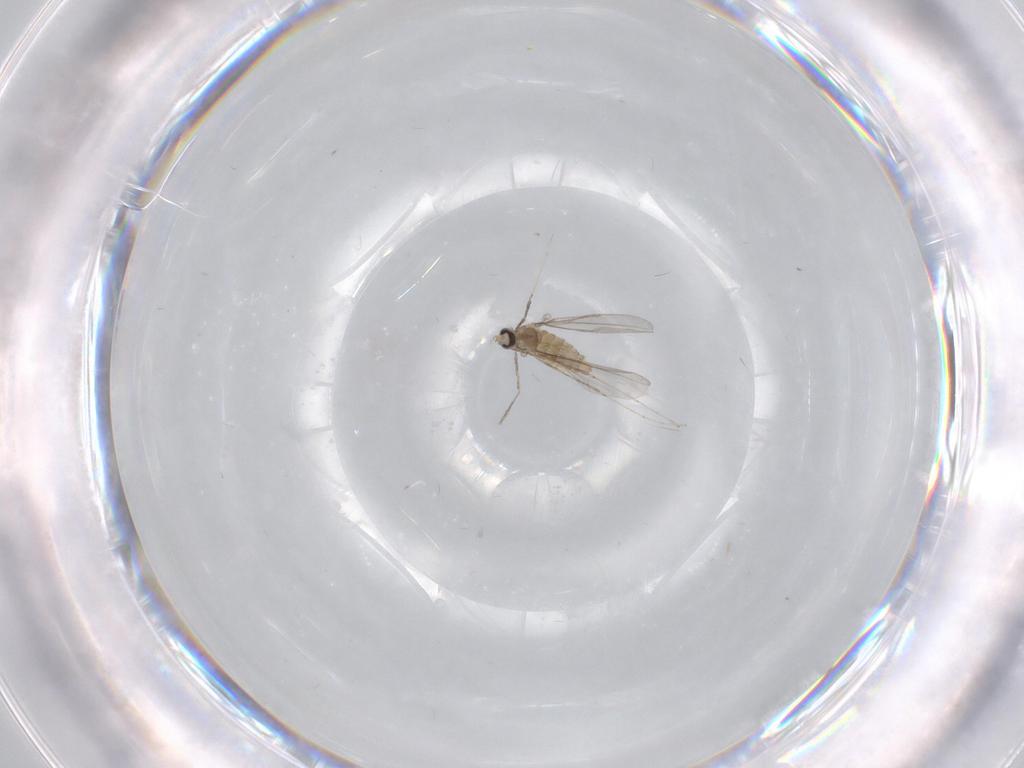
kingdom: Animalia
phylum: Arthropoda
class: Insecta
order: Diptera
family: Cecidomyiidae
